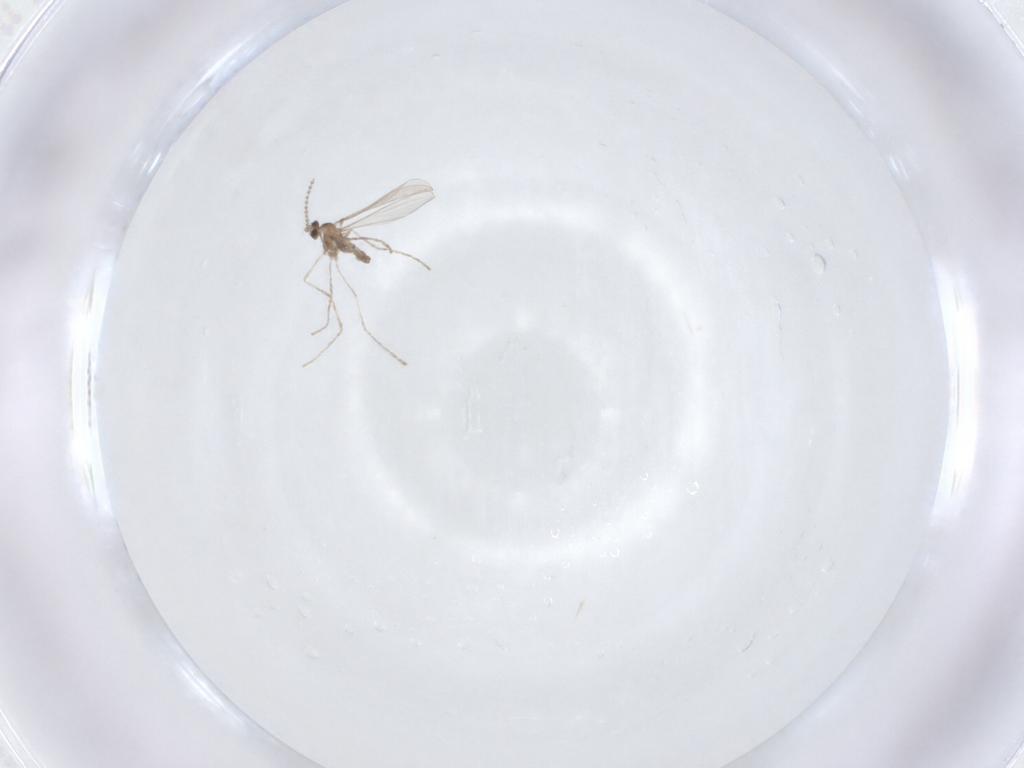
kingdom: Animalia
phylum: Arthropoda
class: Insecta
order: Diptera
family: Cecidomyiidae
